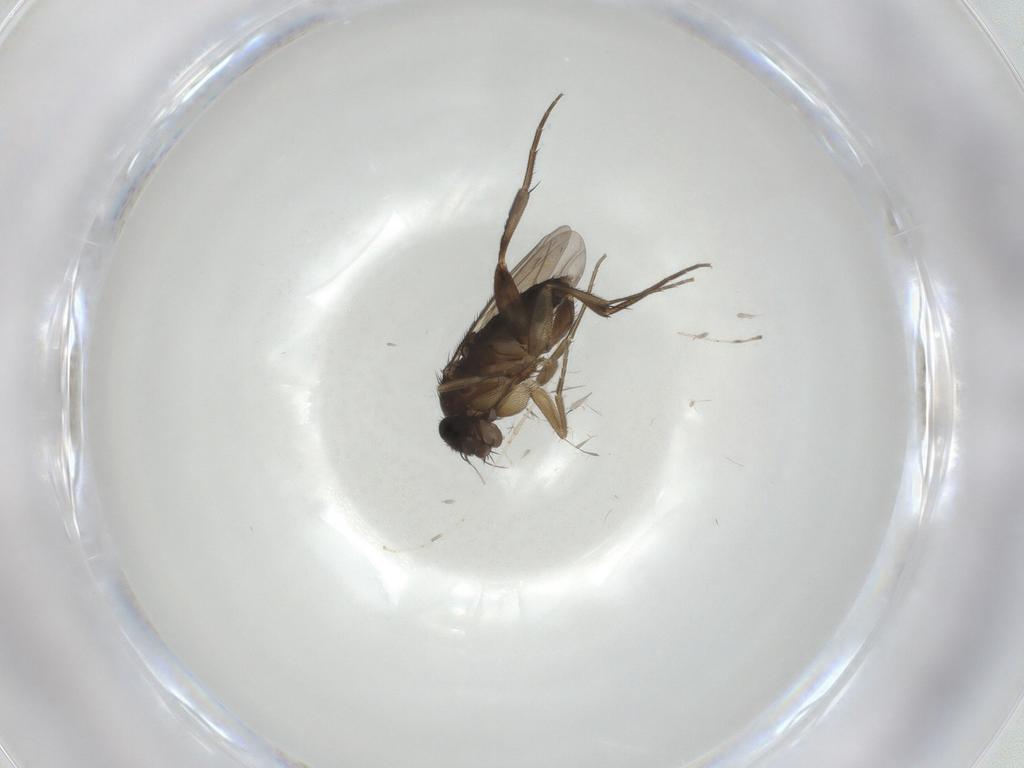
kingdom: Animalia
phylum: Arthropoda
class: Insecta
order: Diptera
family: Phoridae
